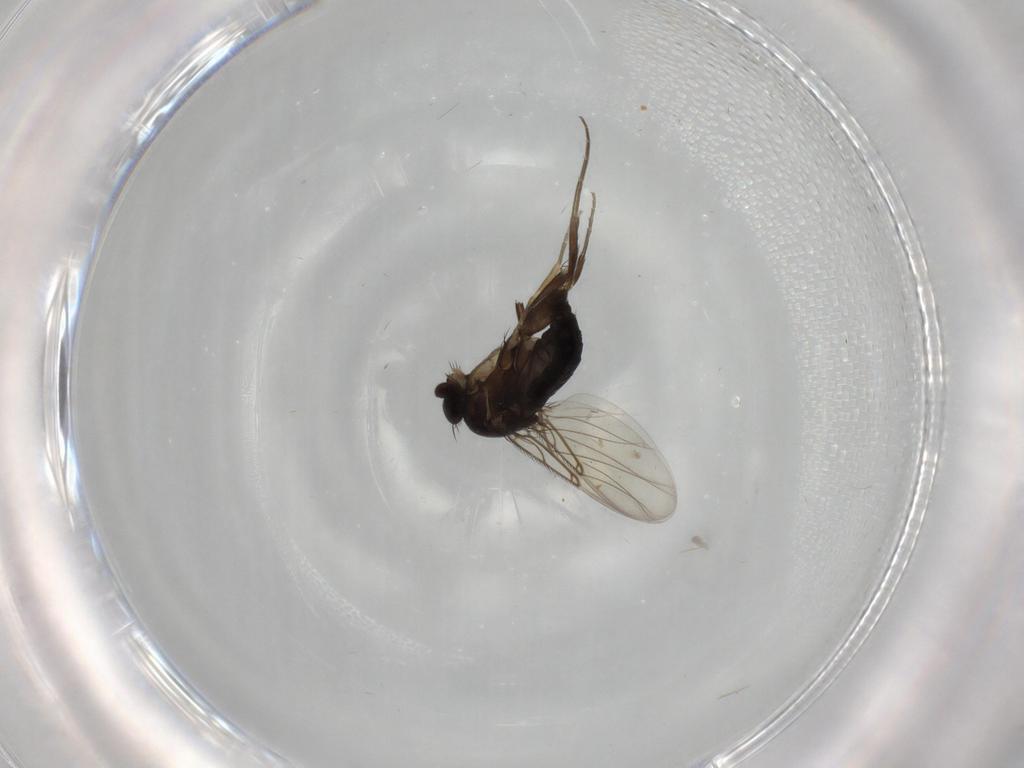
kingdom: Animalia
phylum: Arthropoda
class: Insecta
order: Diptera
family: Phoridae
